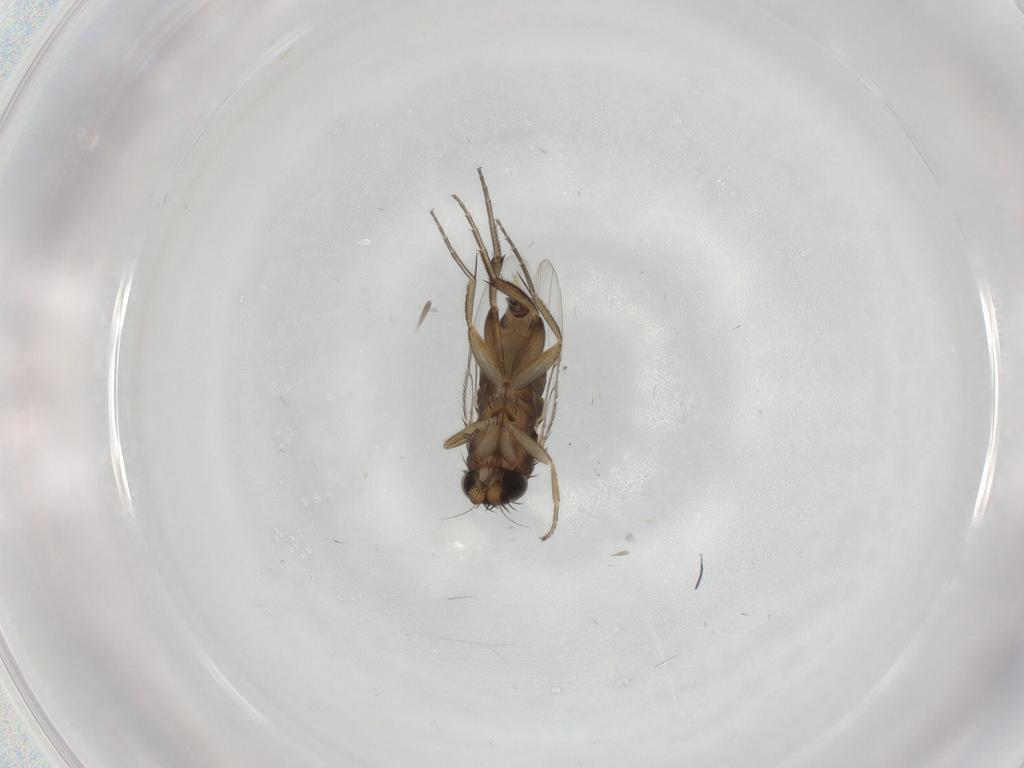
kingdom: Animalia
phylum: Arthropoda
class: Insecta
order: Diptera
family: Phoridae
